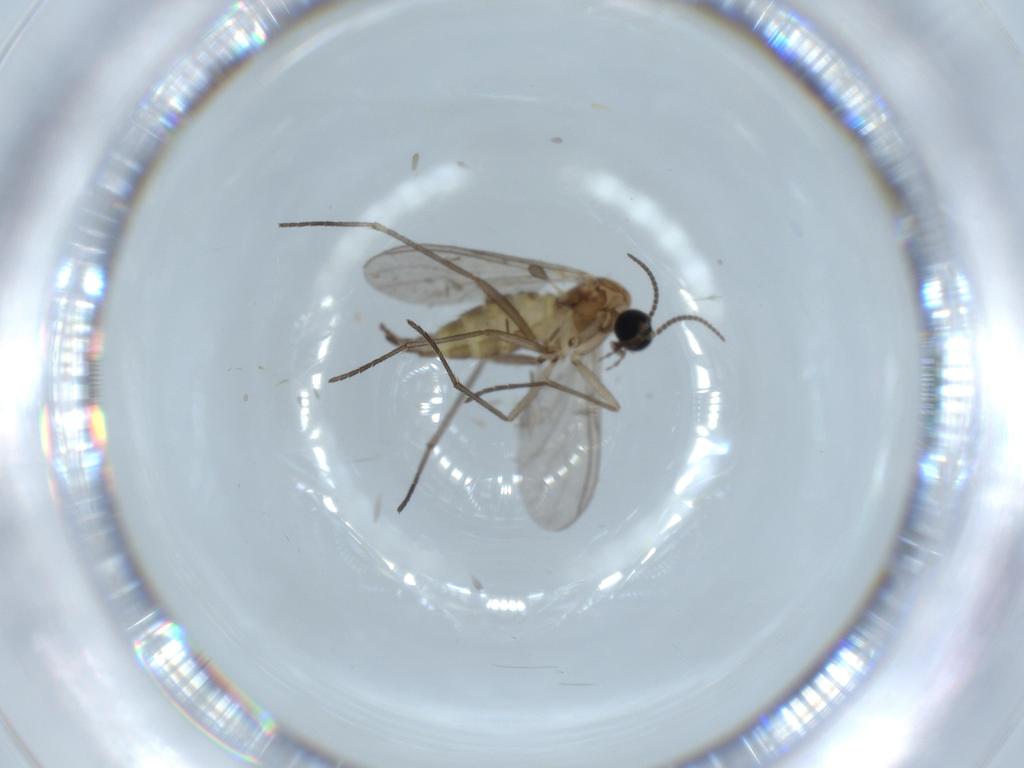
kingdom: Animalia
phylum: Arthropoda
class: Insecta
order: Diptera
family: Sciaridae
